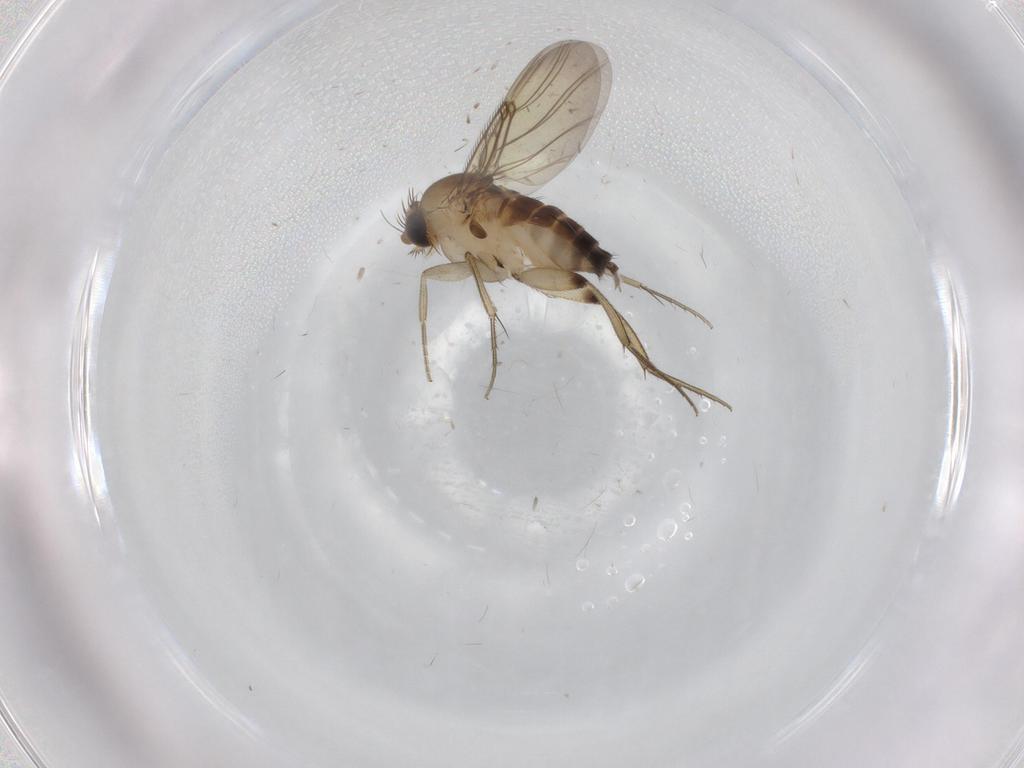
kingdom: Animalia
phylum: Arthropoda
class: Insecta
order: Diptera
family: Phoridae
